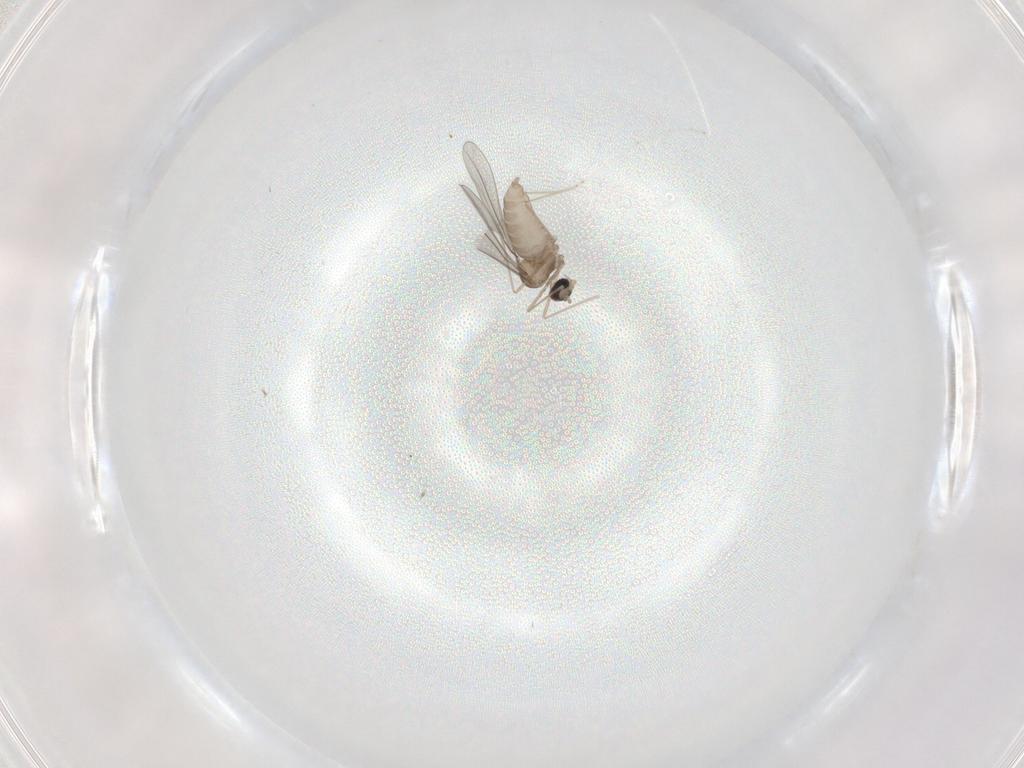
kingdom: Animalia
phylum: Arthropoda
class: Insecta
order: Diptera
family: Cecidomyiidae
